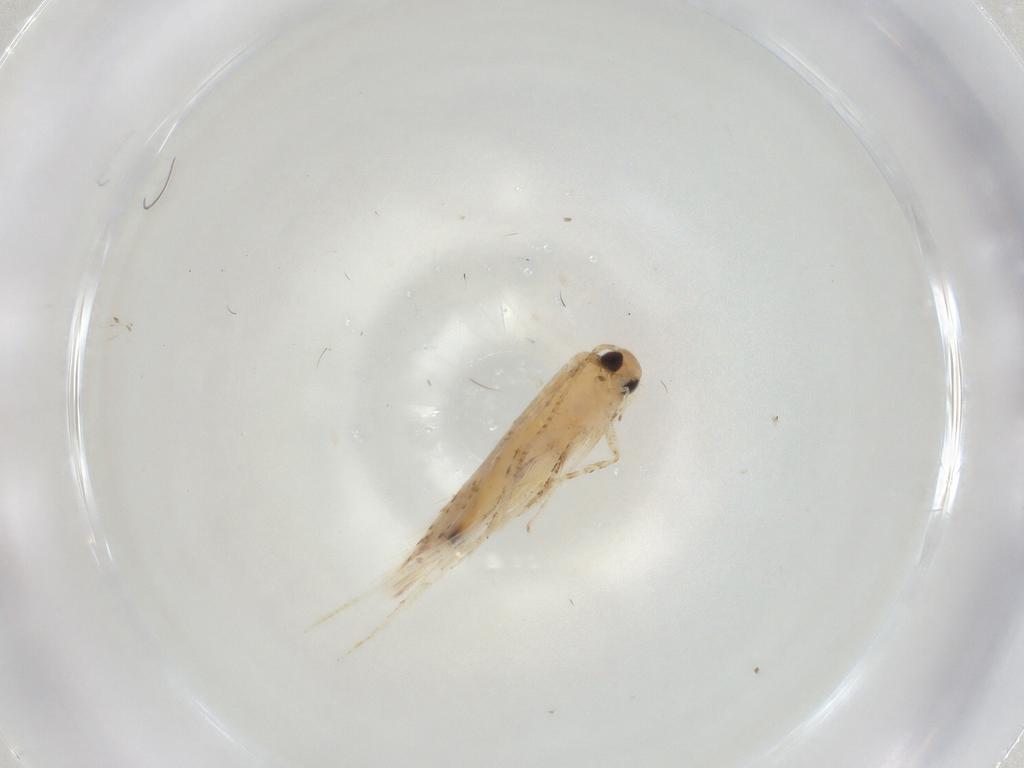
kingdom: Animalia
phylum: Arthropoda
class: Insecta
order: Lepidoptera
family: Gelechiidae
